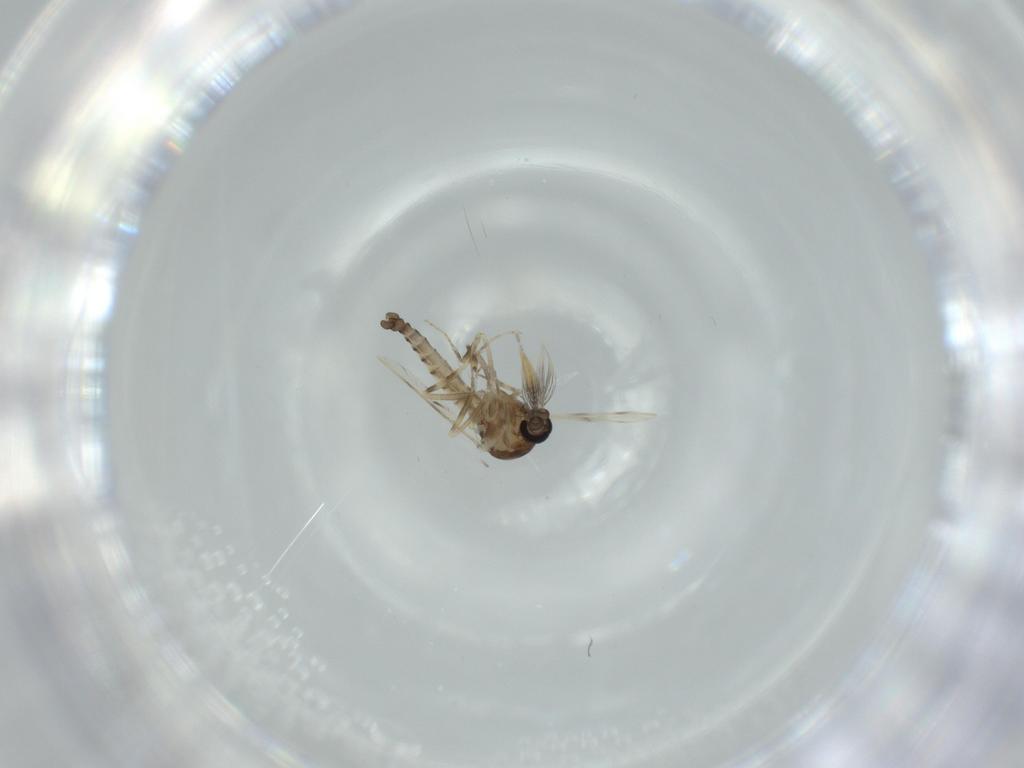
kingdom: Animalia
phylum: Arthropoda
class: Insecta
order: Diptera
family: Ceratopogonidae
